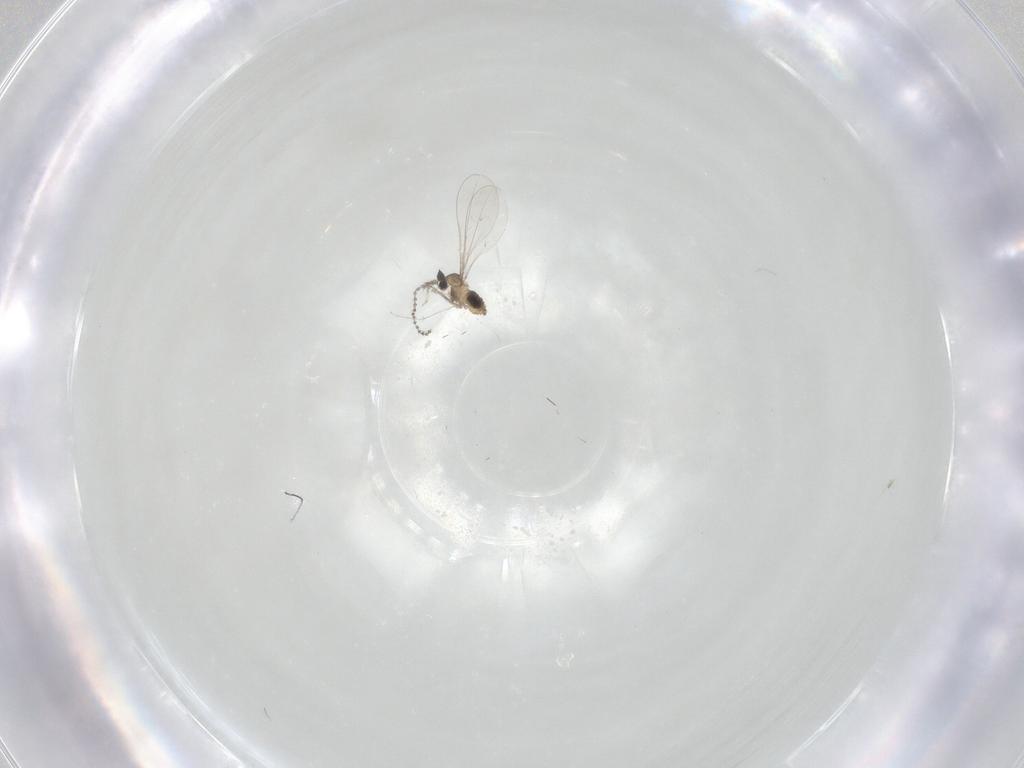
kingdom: Animalia
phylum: Arthropoda
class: Insecta
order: Diptera
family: Cecidomyiidae
